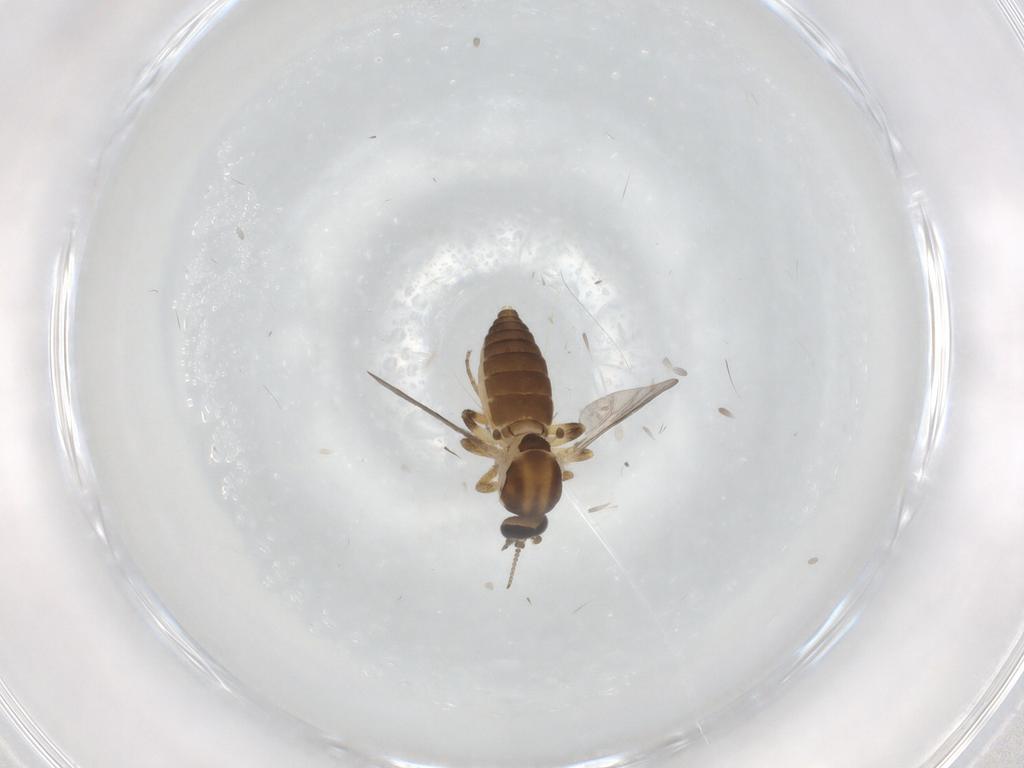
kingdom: Animalia
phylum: Arthropoda
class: Insecta
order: Diptera
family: Ceratopogonidae
